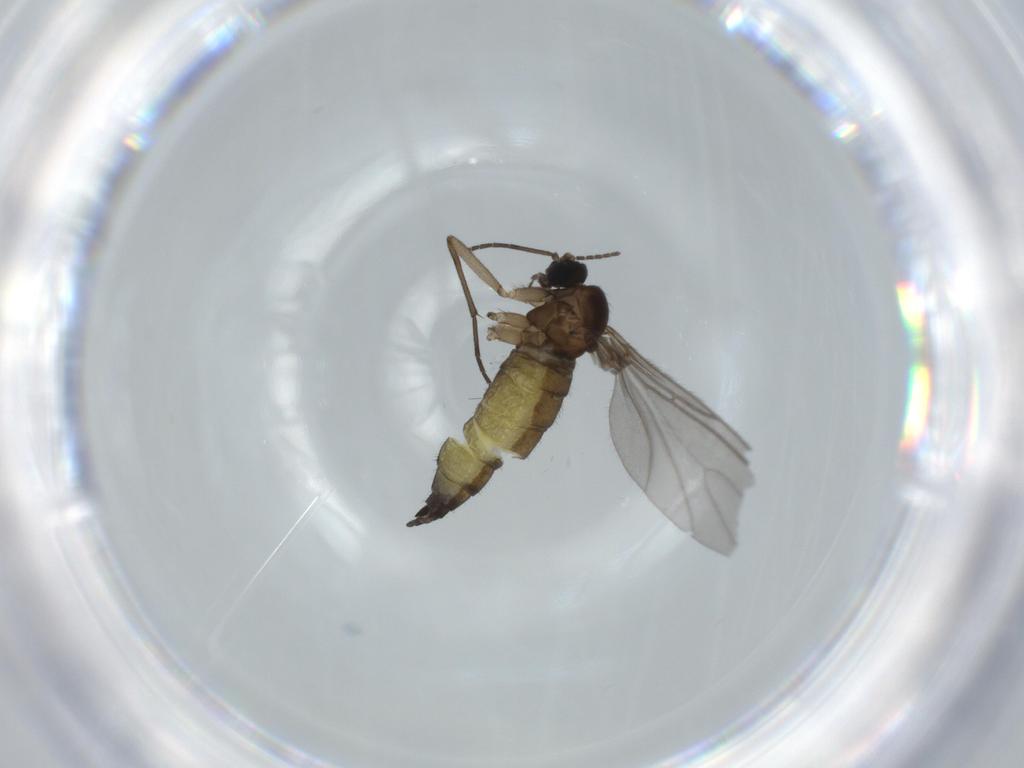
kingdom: Animalia
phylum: Arthropoda
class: Insecta
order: Diptera
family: Sciaridae
